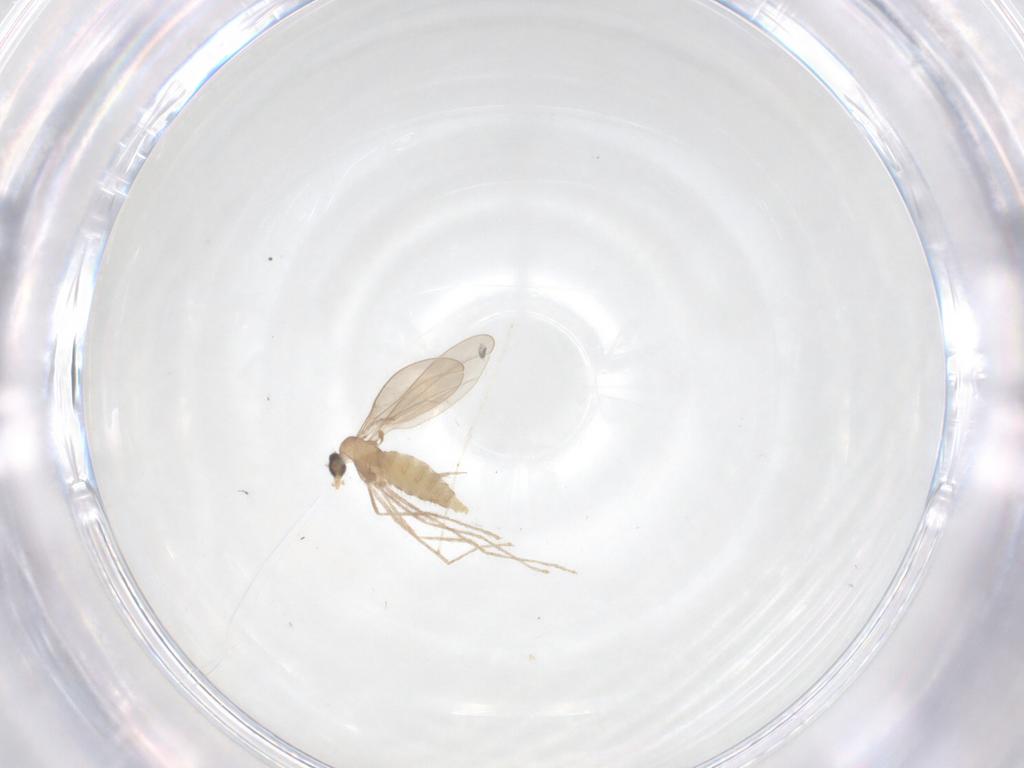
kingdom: Animalia
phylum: Arthropoda
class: Insecta
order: Diptera
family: Cecidomyiidae
